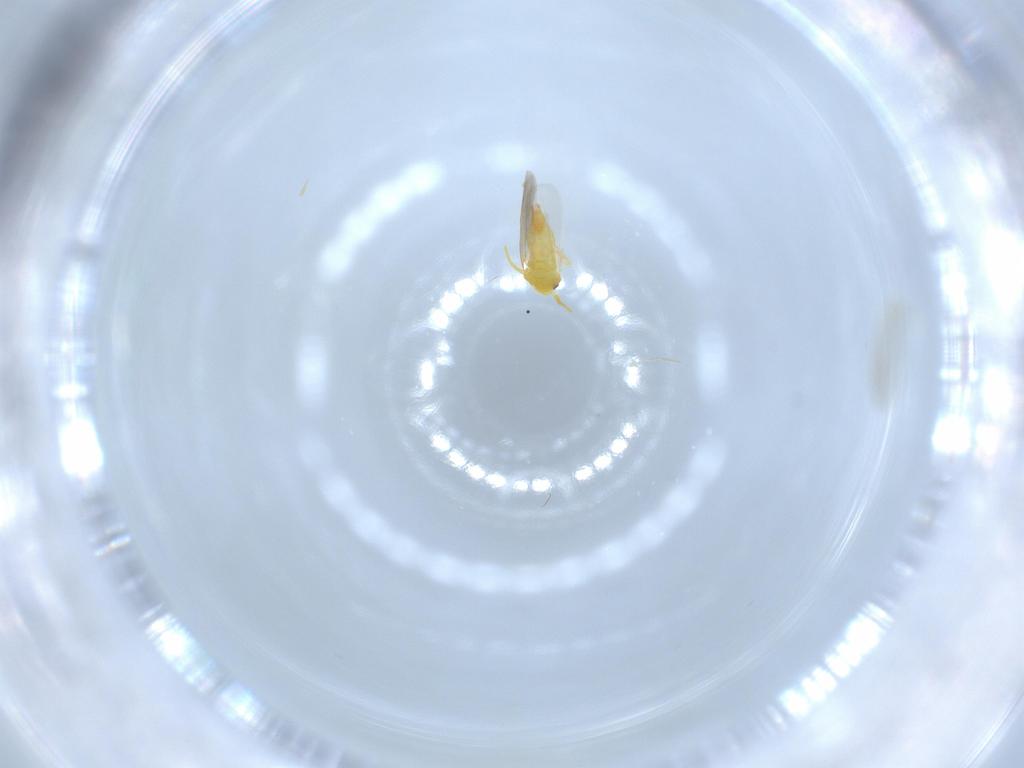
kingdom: Animalia
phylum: Arthropoda
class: Insecta
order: Hemiptera
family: Aleyrodidae
